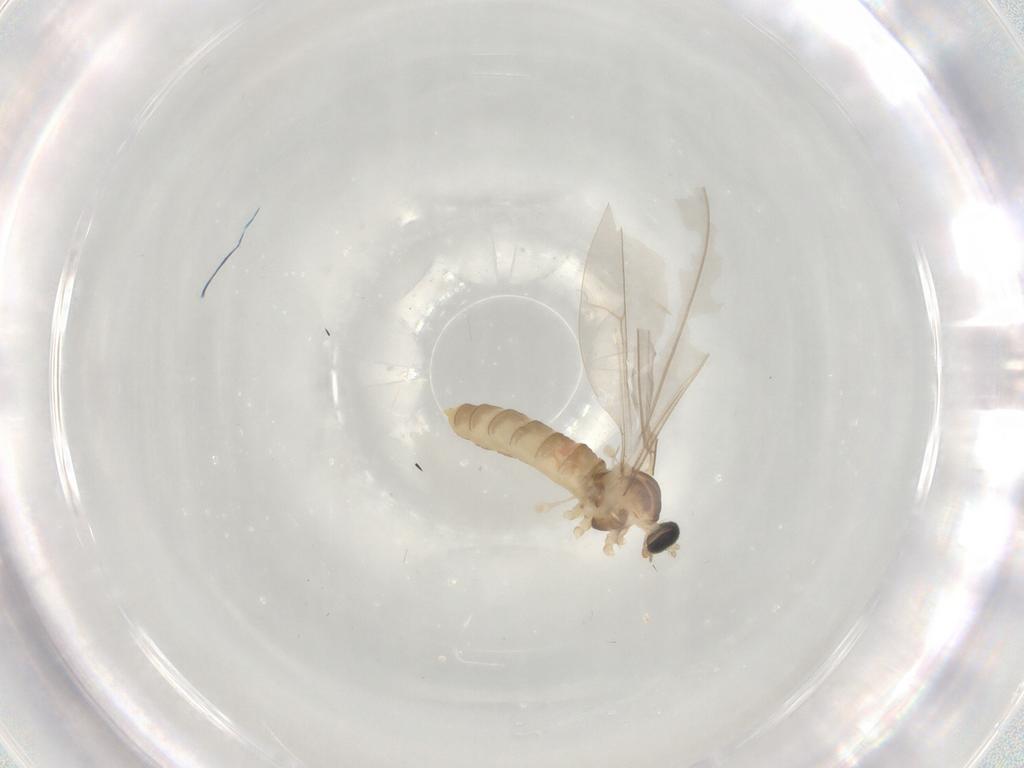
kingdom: Animalia
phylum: Arthropoda
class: Insecta
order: Diptera
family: Cecidomyiidae
